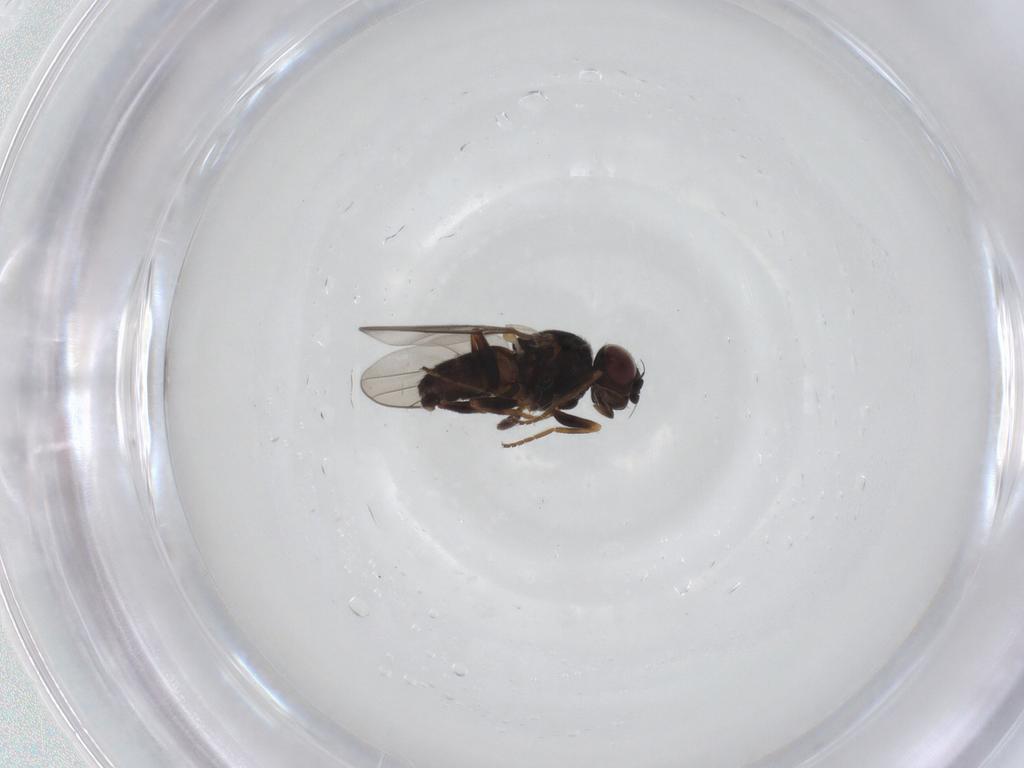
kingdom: Animalia
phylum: Arthropoda
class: Insecta
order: Diptera
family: Chloropidae
